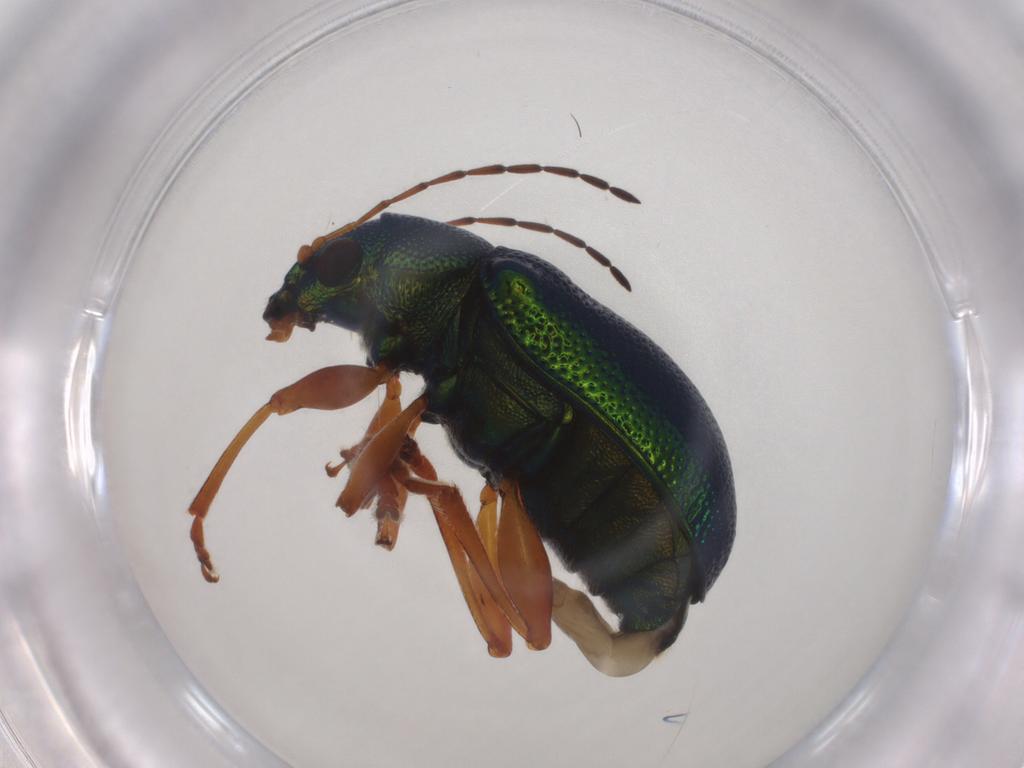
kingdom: Animalia
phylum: Arthropoda
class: Insecta
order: Coleoptera
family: Chrysomelidae
